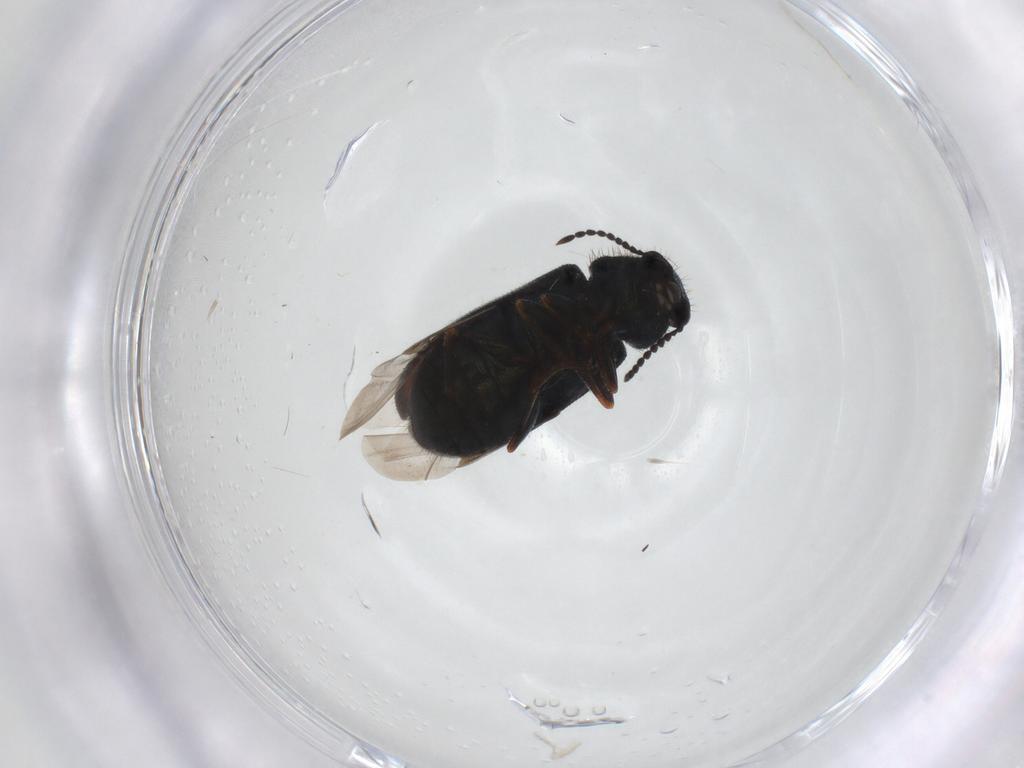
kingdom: Animalia
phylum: Arthropoda
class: Insecta
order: Coleoptera
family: Melyridae
